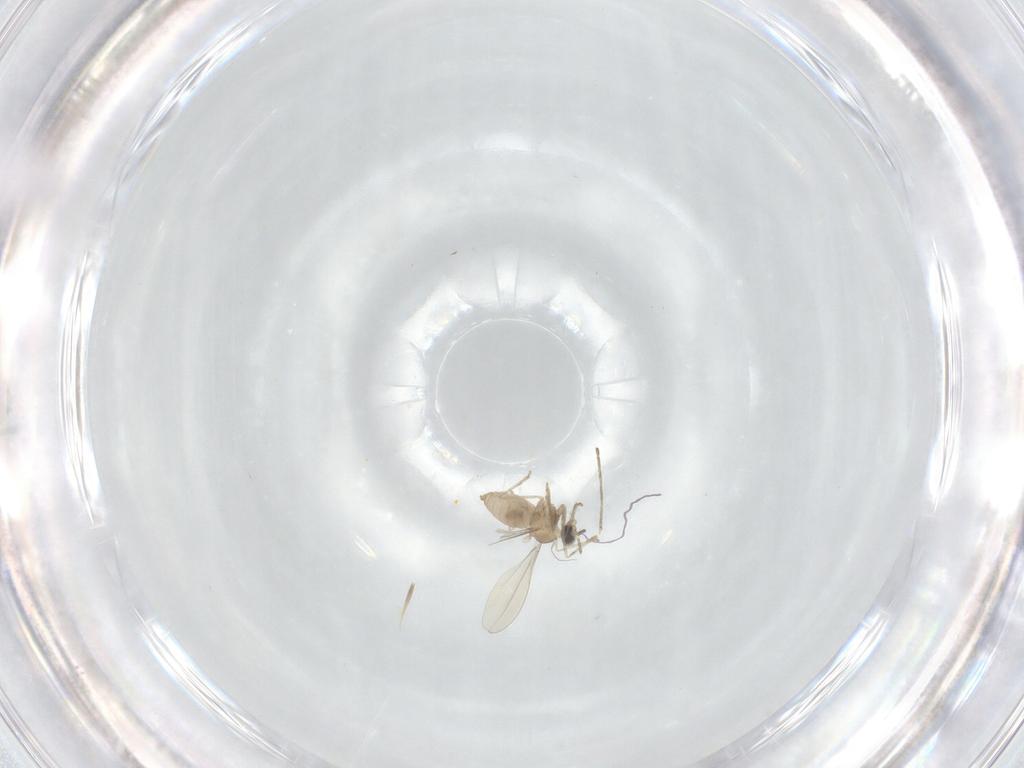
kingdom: Animalia
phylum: Arthropoda
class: Insecta
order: Diptera
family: Phoridae
